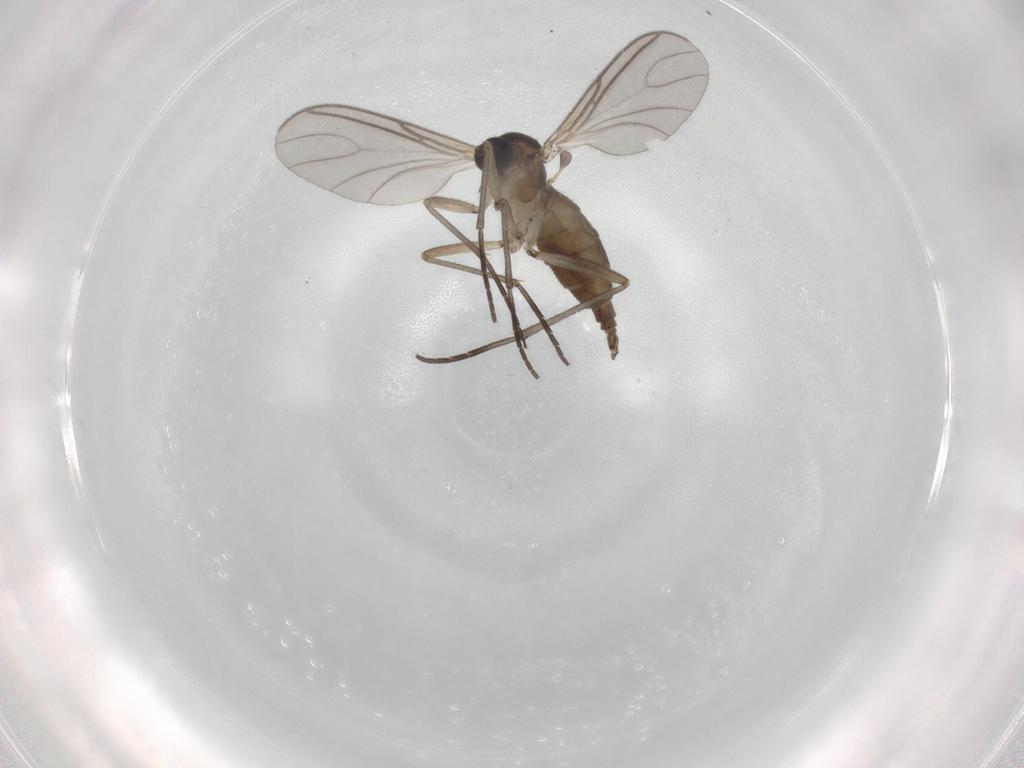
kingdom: Animalia
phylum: Arthropoda
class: Insecta
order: Diptera
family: Sciaridae
